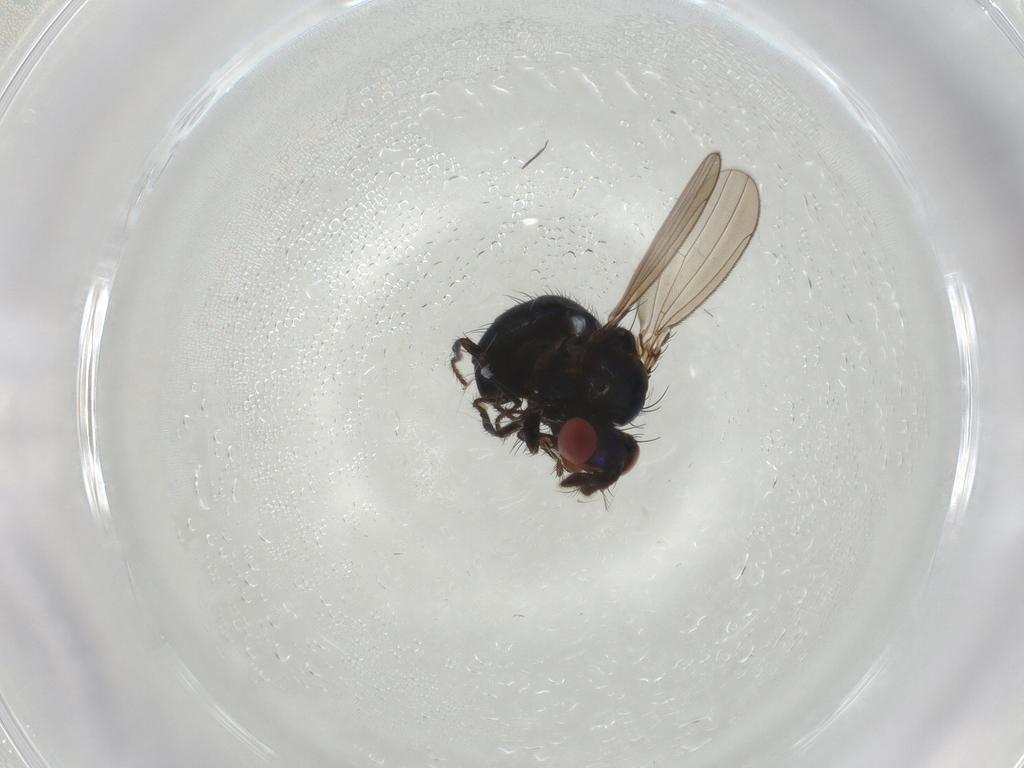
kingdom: Animalia
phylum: Arthropoda
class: Insecta
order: Diptera
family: Ephydridae
